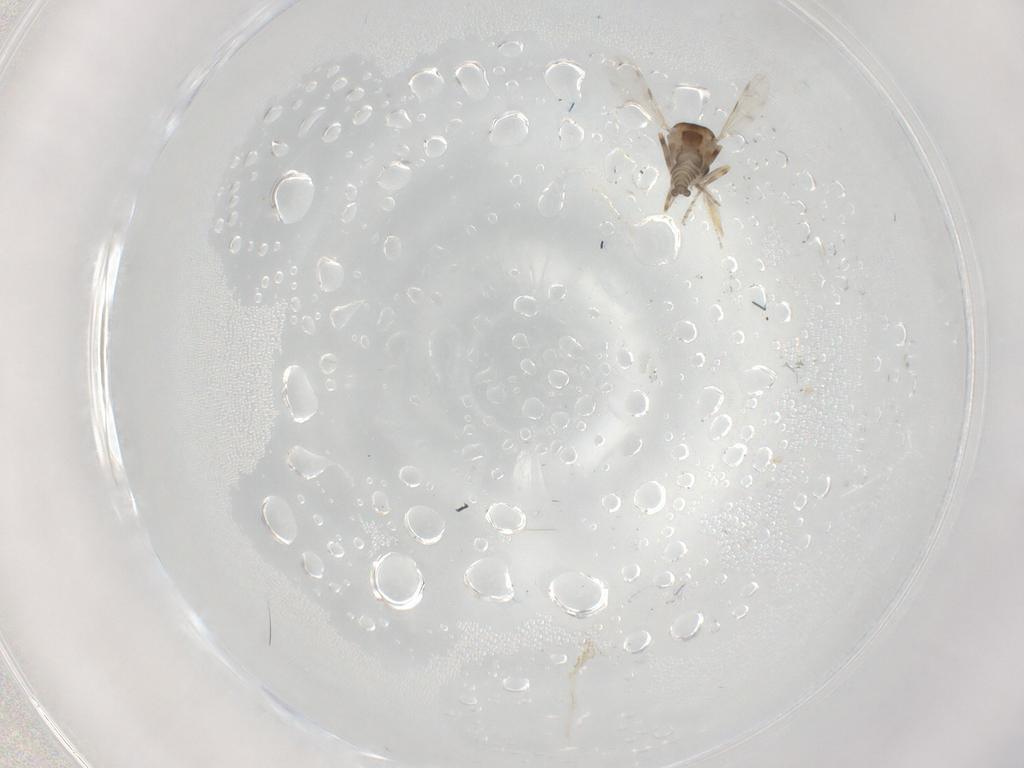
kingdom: Animalia
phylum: Arthropoda
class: Insecta
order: Diptera
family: Ceratopogonidae
